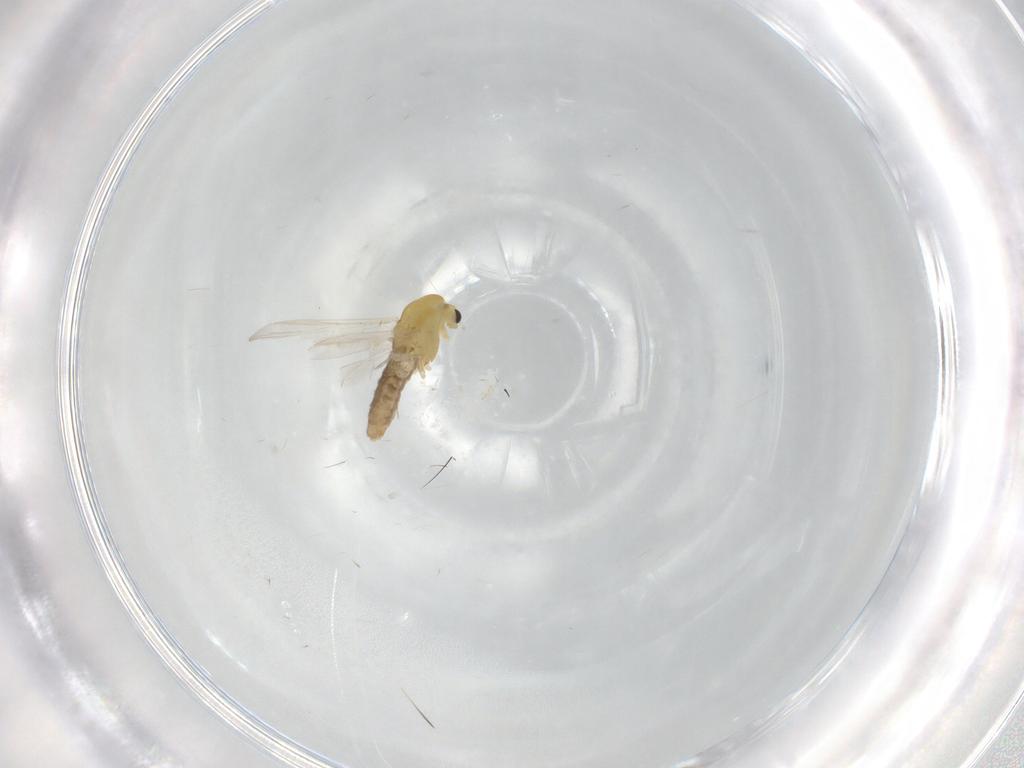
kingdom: Animalia
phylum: Arthropoda
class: Insecta
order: Diptera
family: Chironomidae
